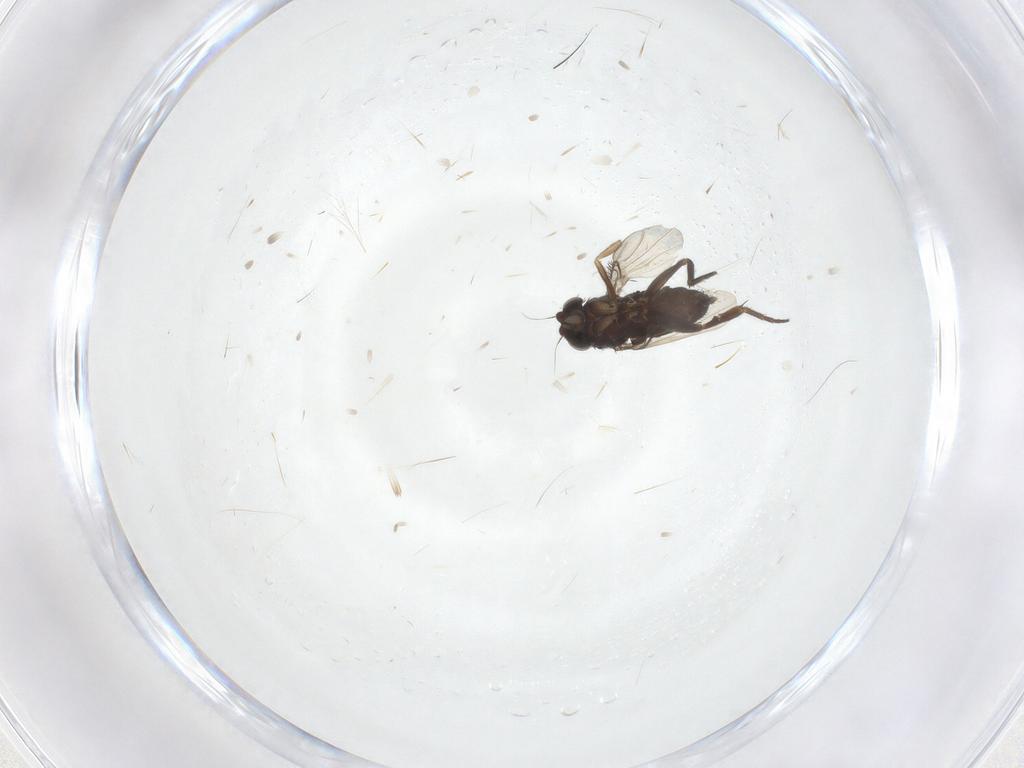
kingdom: Animalia
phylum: Arthropoda
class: Insecta
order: Diptera
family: Phoridae
